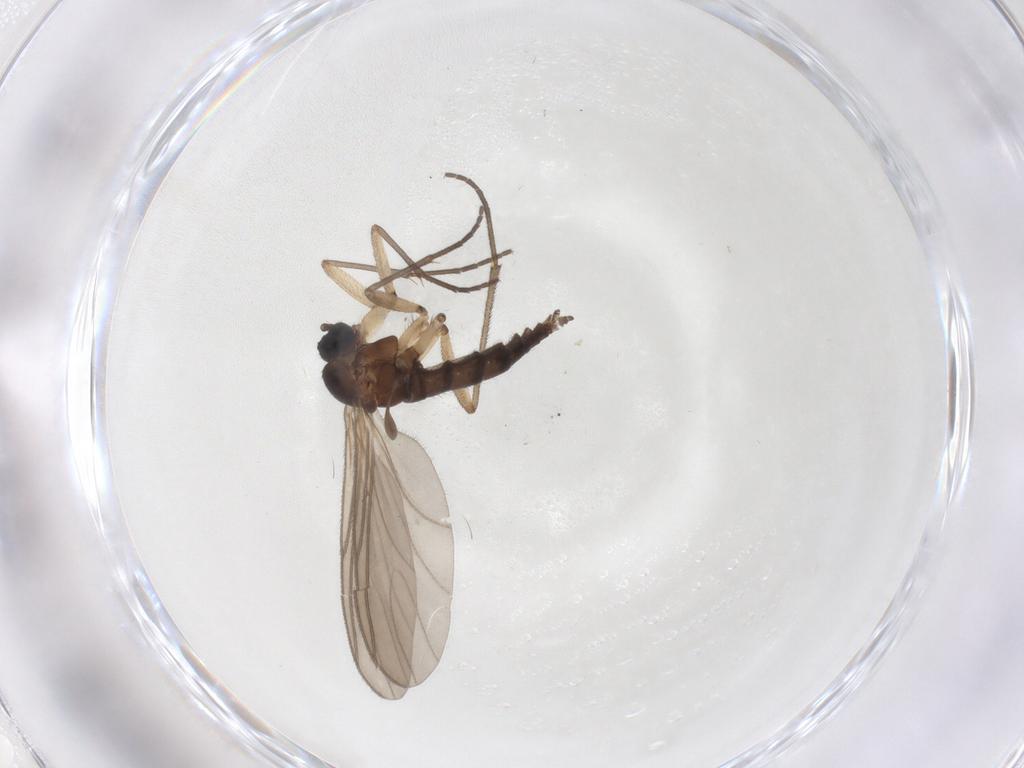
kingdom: Animalia
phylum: Arthropoda
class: Insecta
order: Diptera
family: Sciaridae
